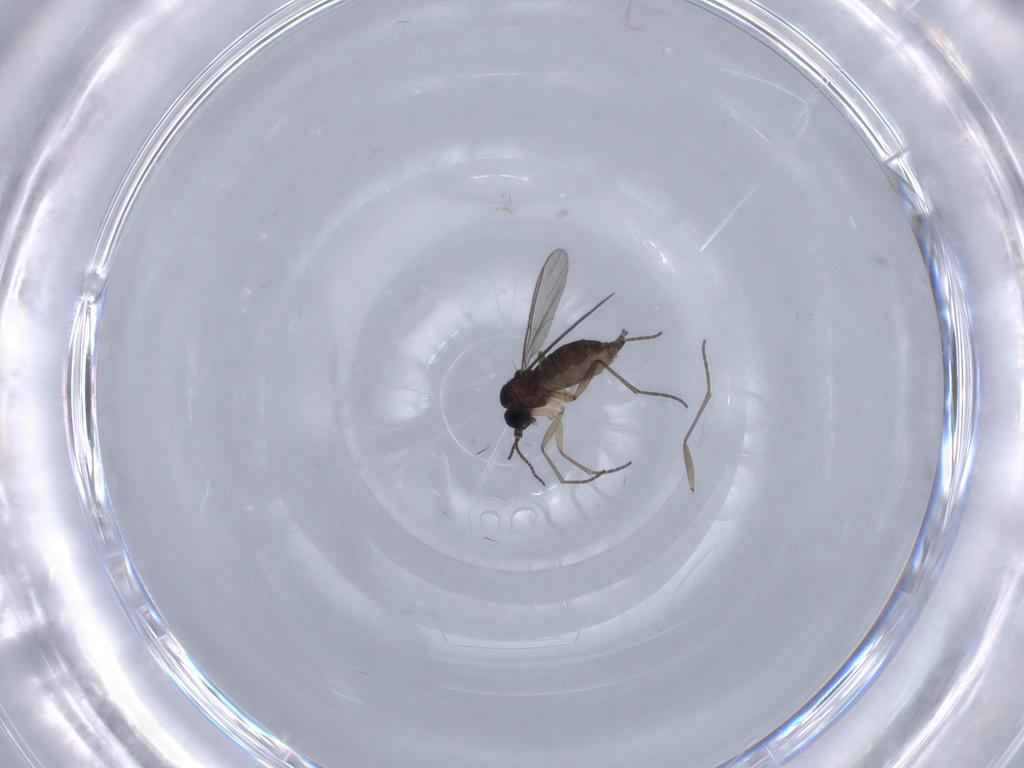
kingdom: Animalia
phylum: Arthropoda
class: Insecta
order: Diptera
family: Sciaridae
